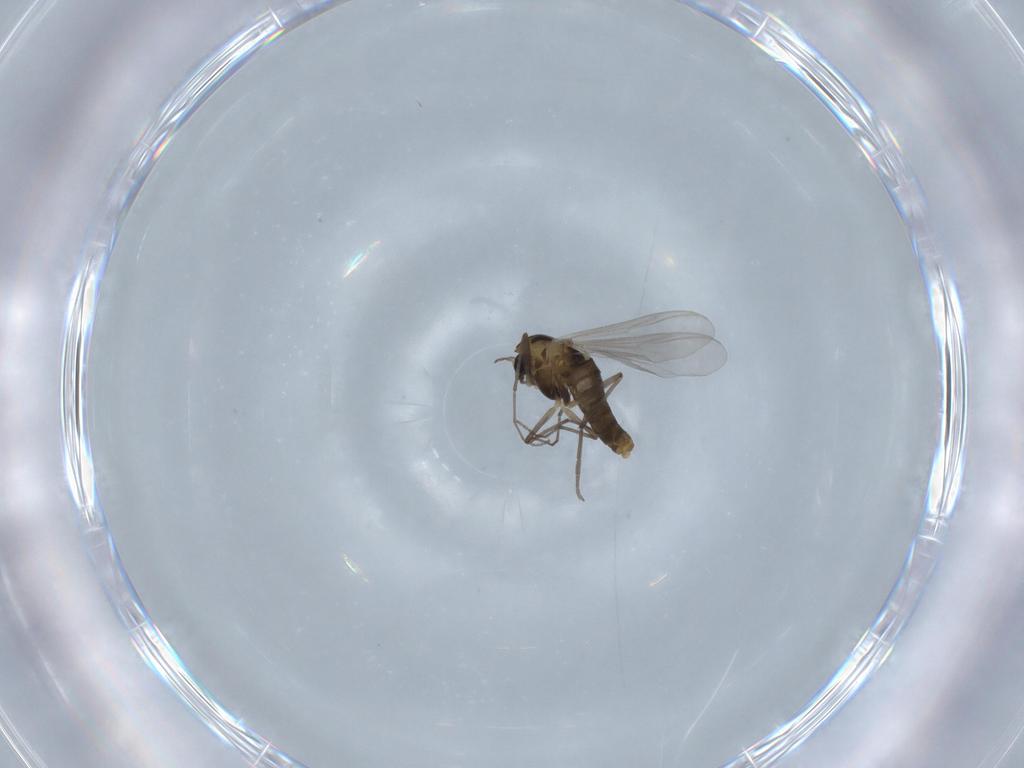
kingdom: Animalia
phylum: Arthropoda
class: Insecta
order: Diptera
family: Chironomidae
